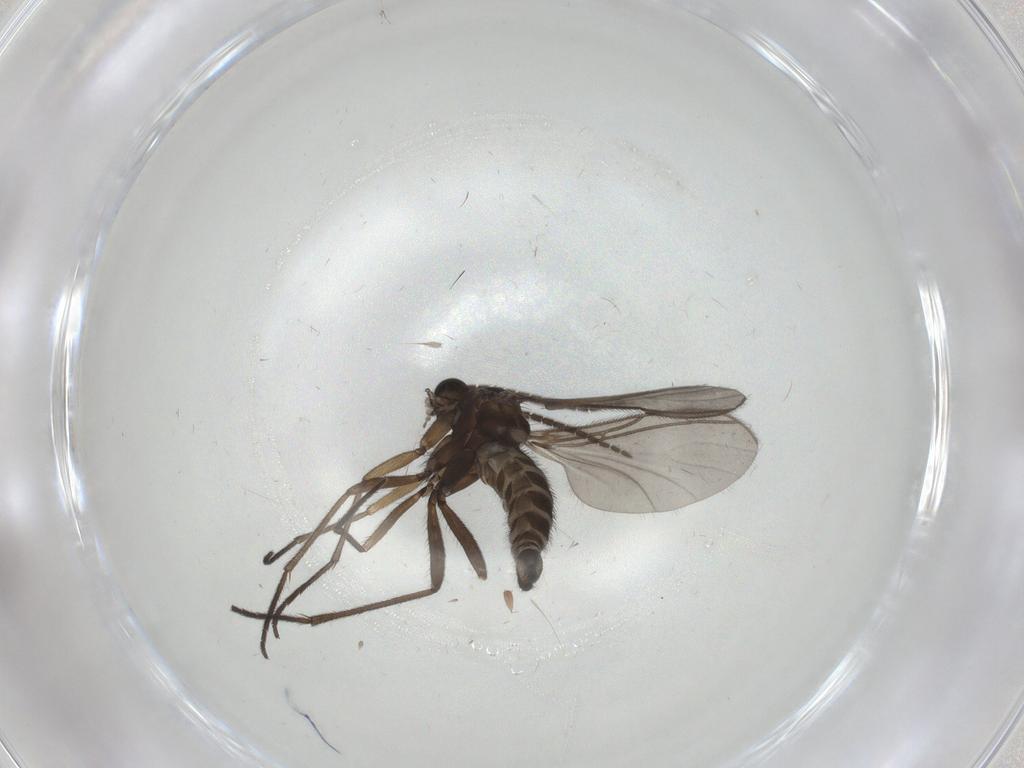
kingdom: Animalia
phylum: Arthropoda
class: Insecta
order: Diptera
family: Sciaridae
